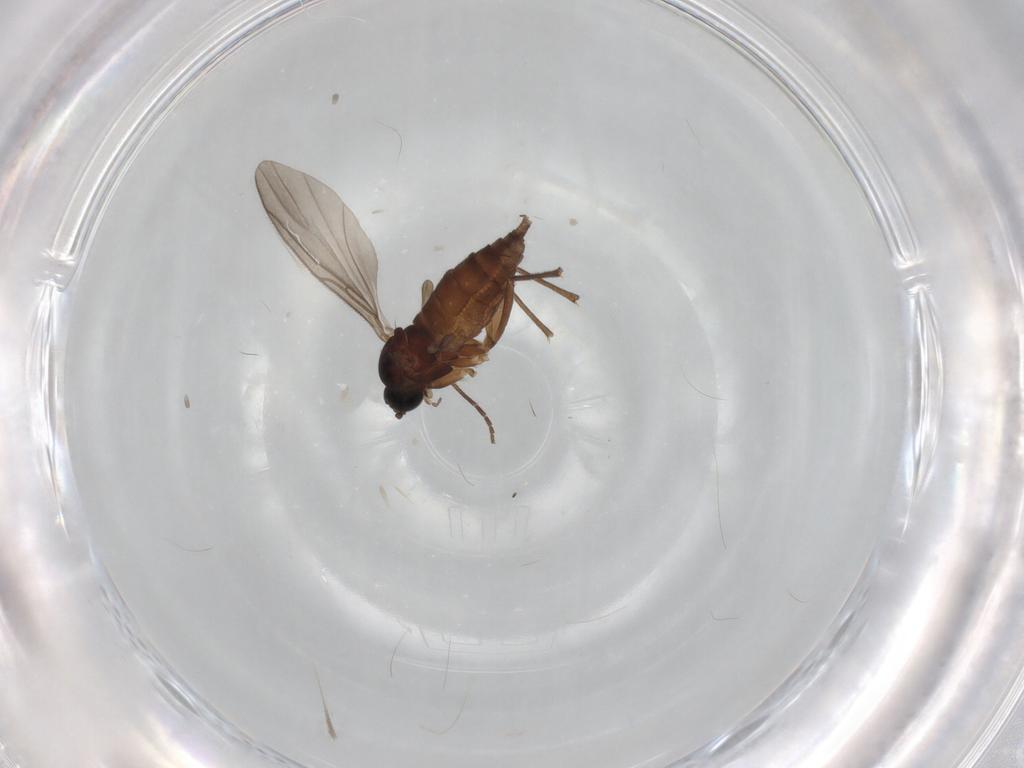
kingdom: Animalia
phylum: Arthropoda
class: Insecta
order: Diptera
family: Sciaridae
